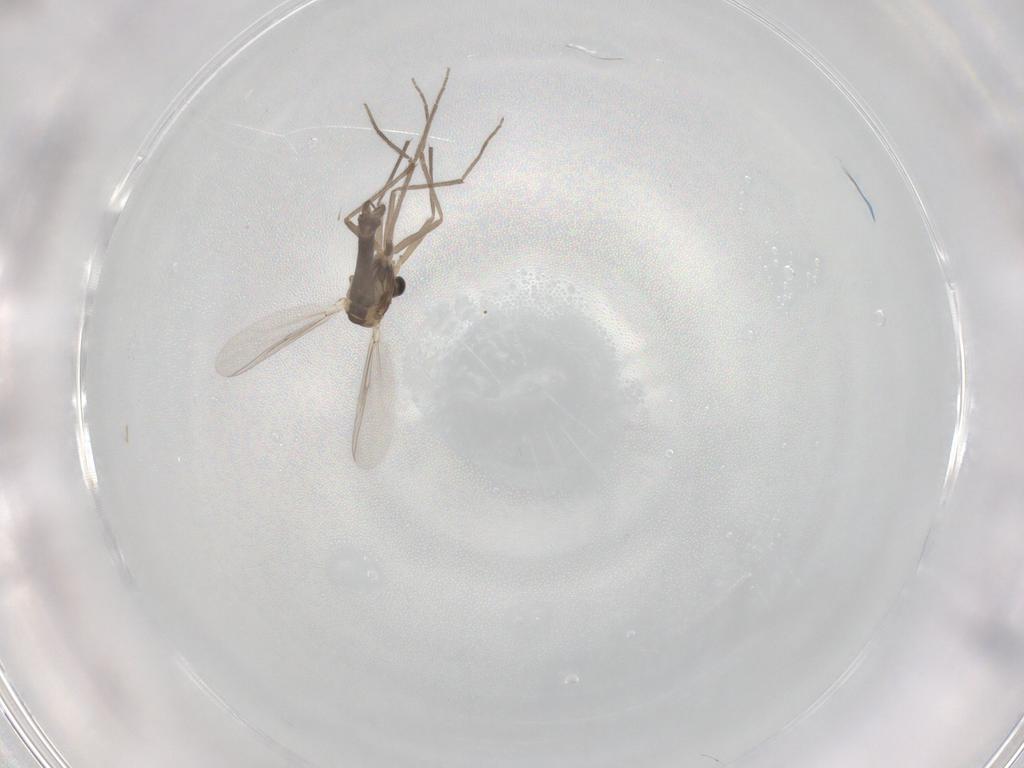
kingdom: Animalia
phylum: Arthropoda
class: Insecta
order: Diptera
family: Chironomidae
